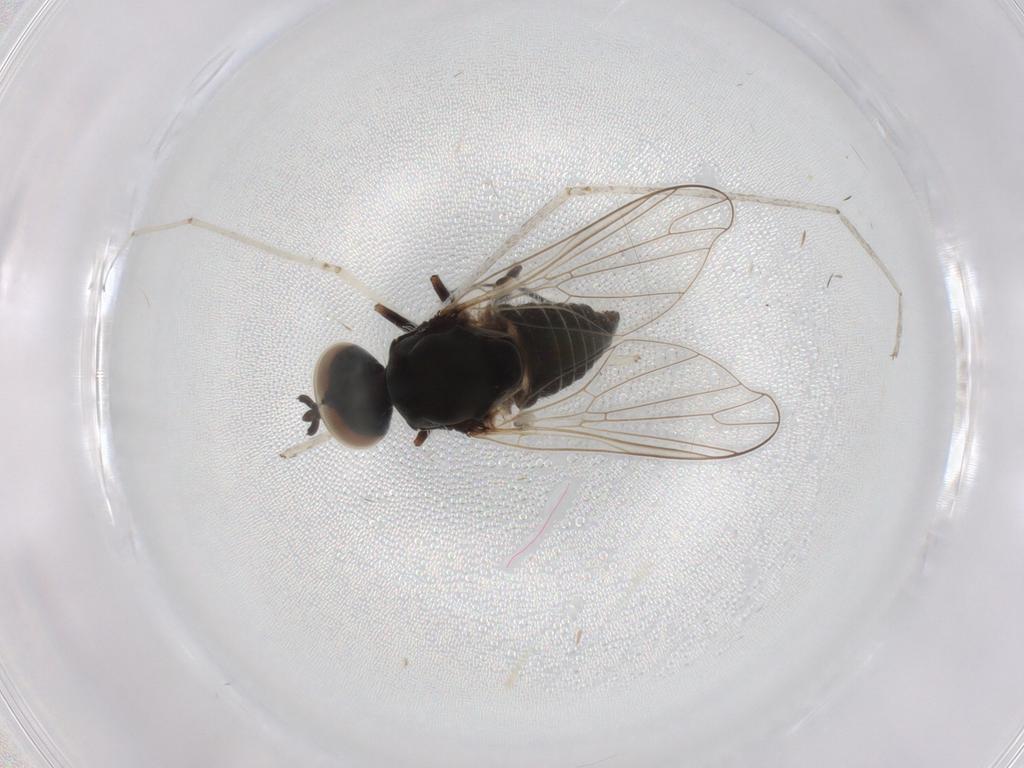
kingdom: Animalia
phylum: Arthropoda
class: Insecta
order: Diptera
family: Bombyliidae
